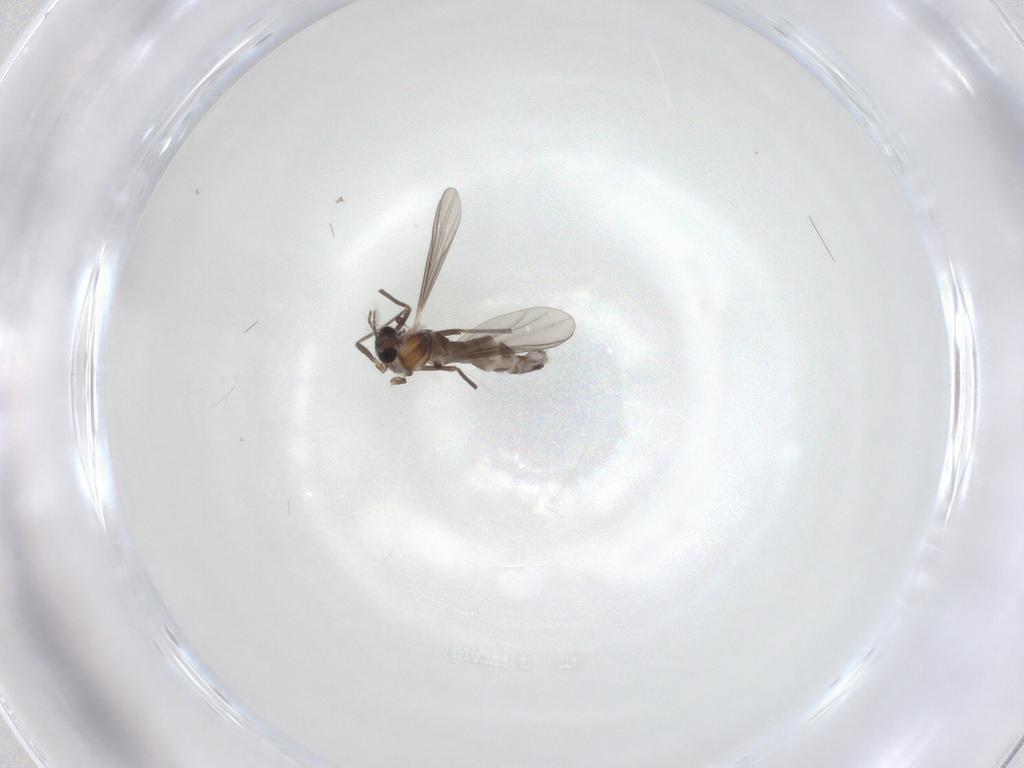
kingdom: Animalia
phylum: Arthropoda
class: Insecta
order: Diptera
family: Chironomidae
